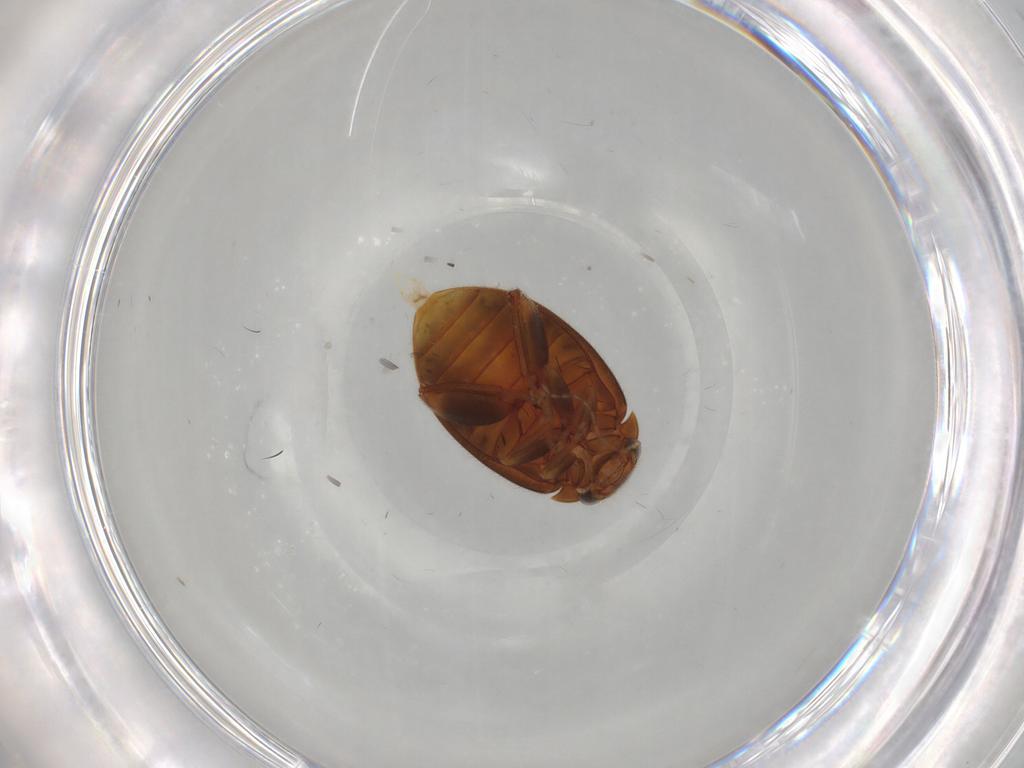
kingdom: Animalia
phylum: Arthropoda
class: Insecta
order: Coleoptera
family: Scirtidae
